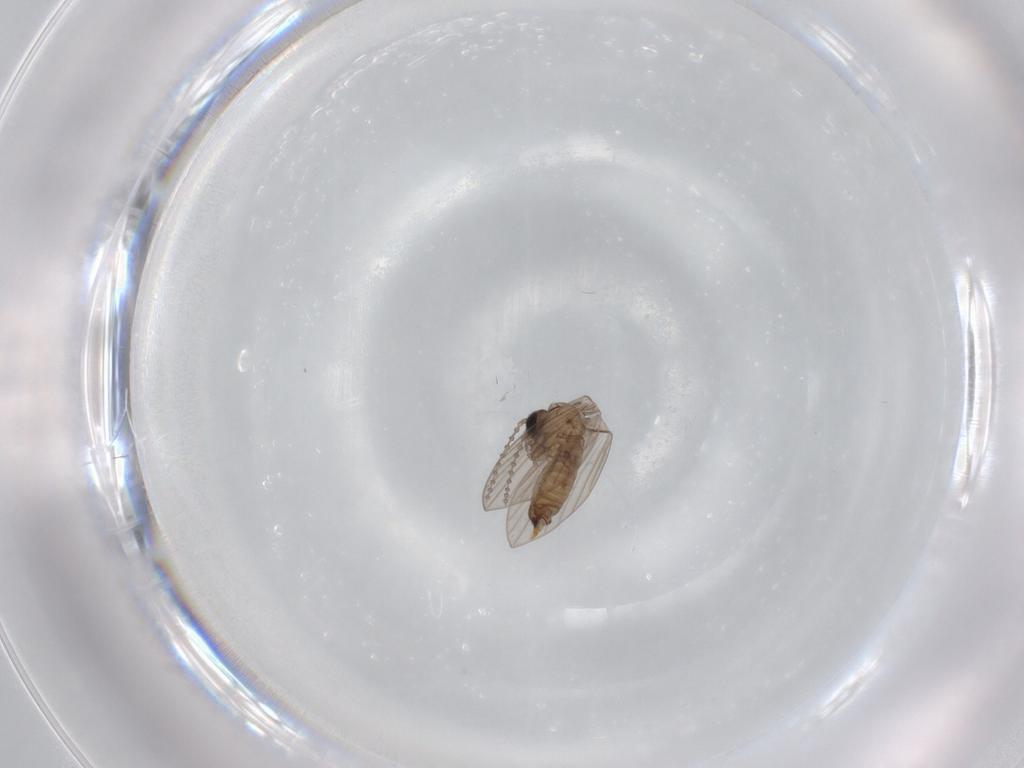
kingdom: Animalia
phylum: Arthropoda
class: Insecta
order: Diptera
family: Psychodidae
